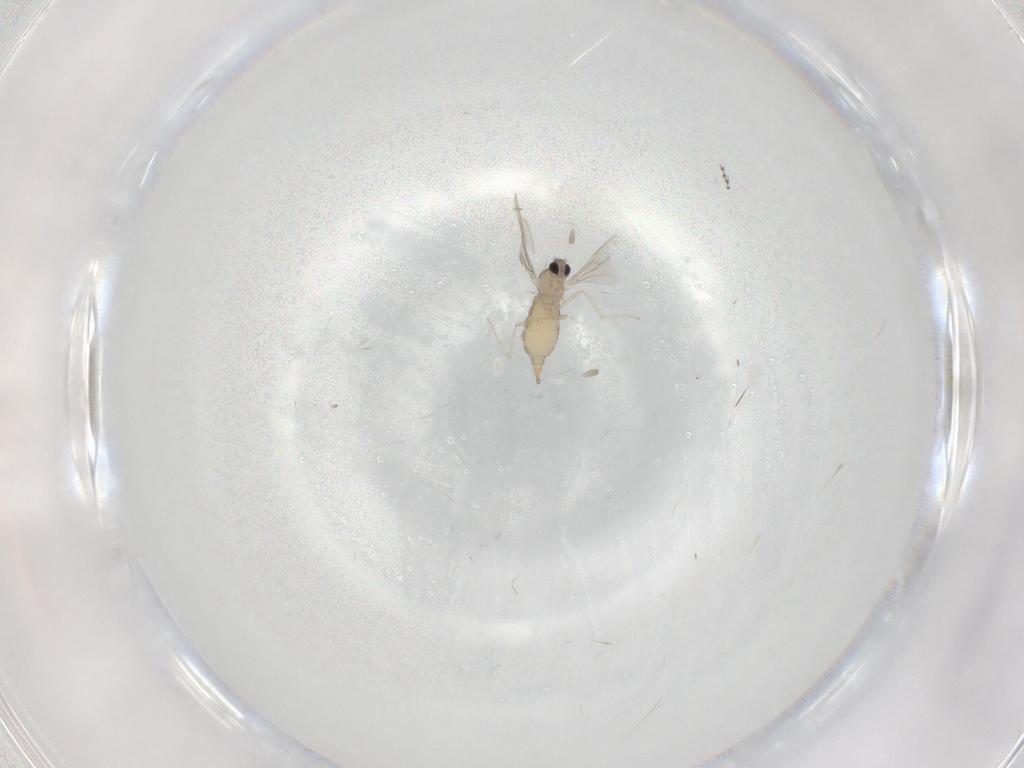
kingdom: Animalia
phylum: Arthropoda
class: Insecta
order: Diptera
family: Cecidomyiidae
